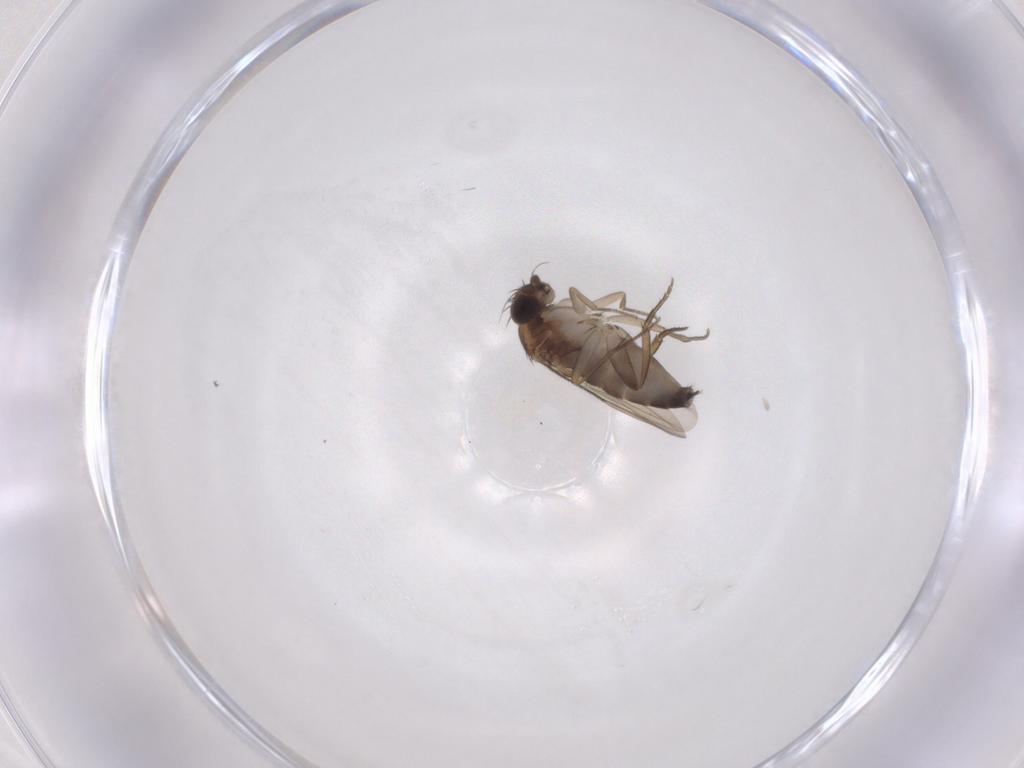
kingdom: Animalia
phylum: Arthropoda
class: Insecta
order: Diptera
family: Phoridae
